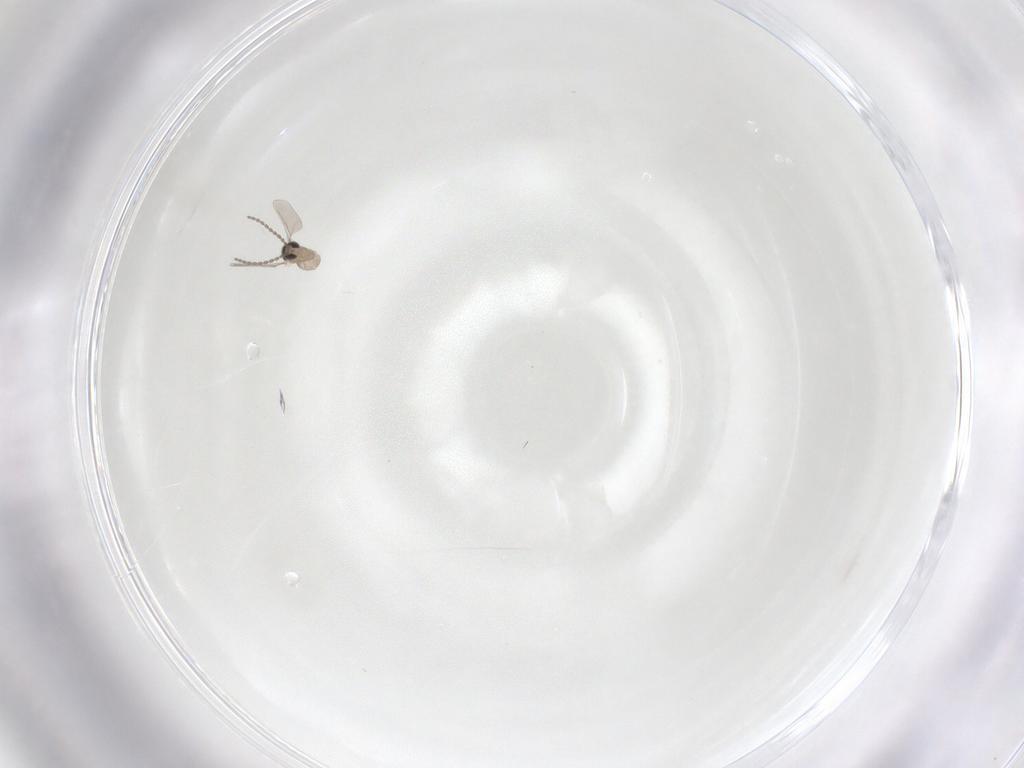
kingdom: Animalia
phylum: Arthropoda
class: Insecta
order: Diptera
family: Cecidomyiidae
